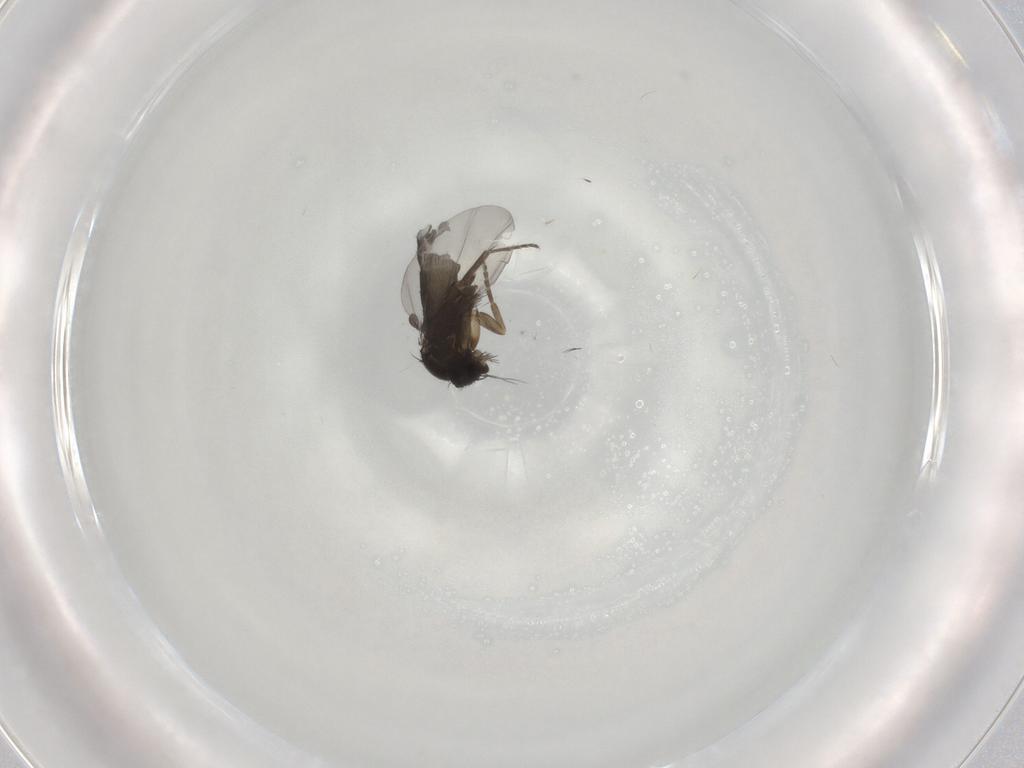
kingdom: Animalia
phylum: Arthropoda
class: Insecta
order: Diptera
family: Phoridae
